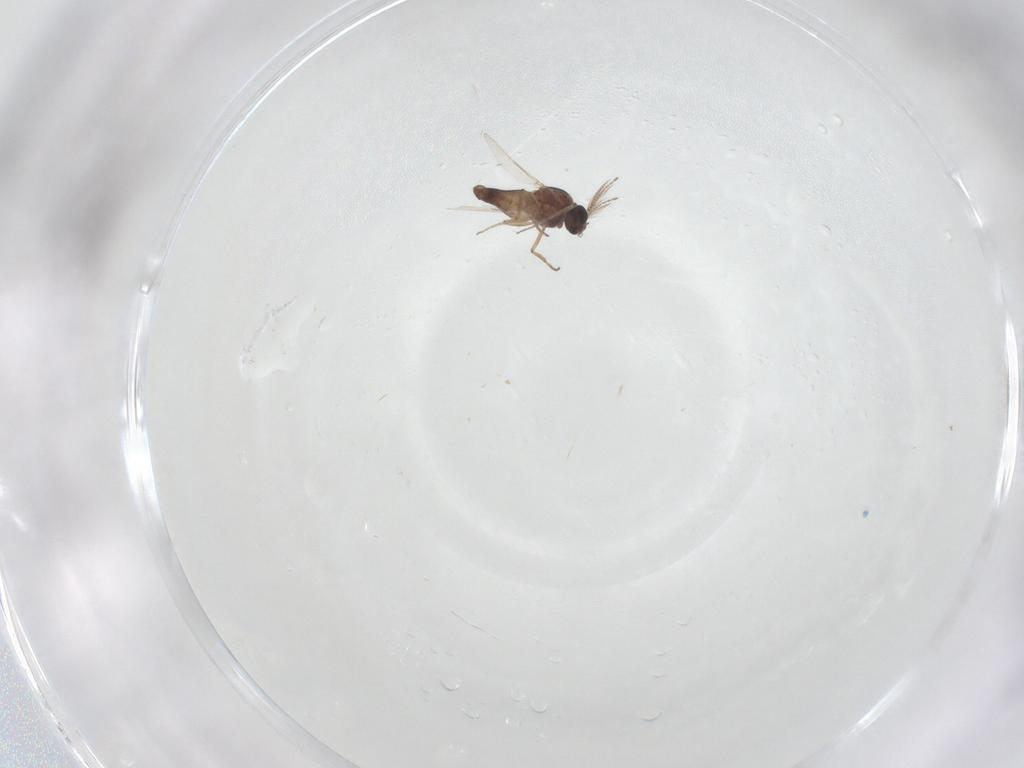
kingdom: Animalia
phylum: Arthropoda
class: Insecta
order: Diptera
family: Ceratopogonidae
